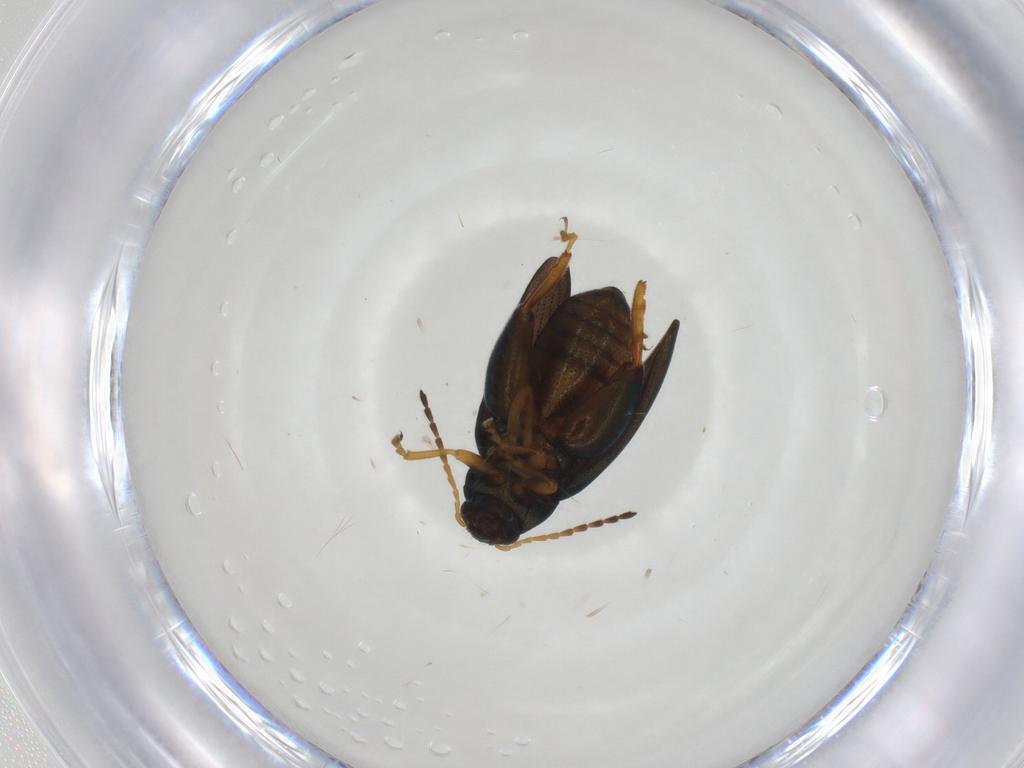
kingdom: Animalia
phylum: Arthropoda
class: Insecta
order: Coleoptera
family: Chrysomelidae
